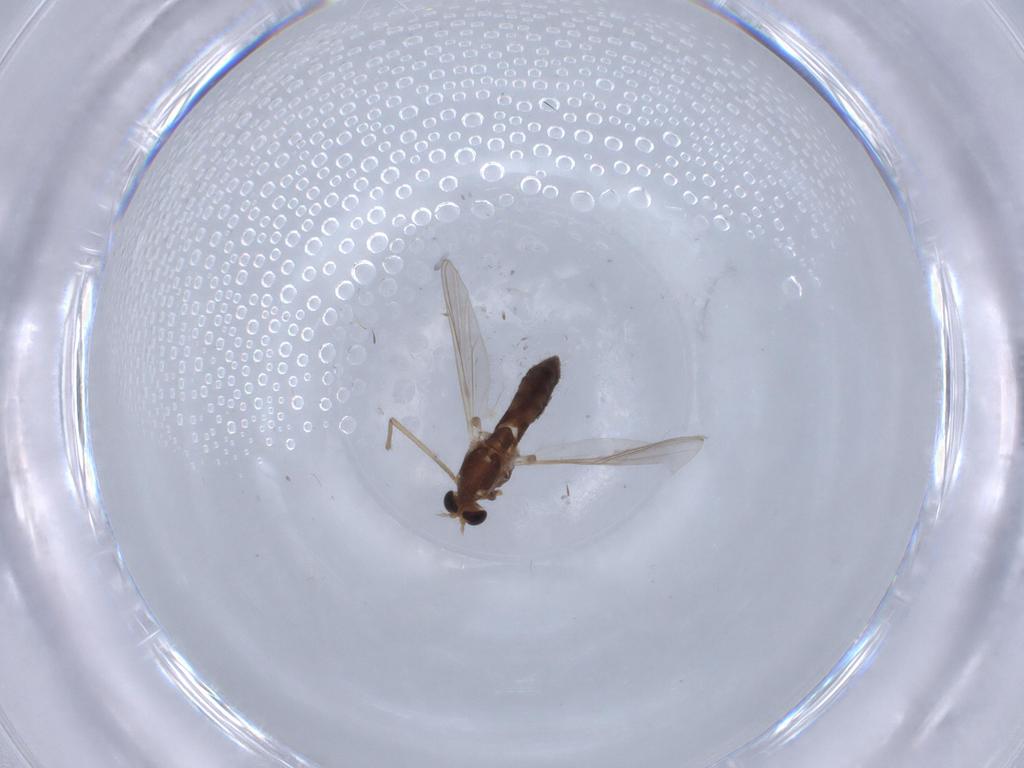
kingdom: Animalia
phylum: Arthropoda
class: Insecta
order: Diptera
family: Chironomidae
